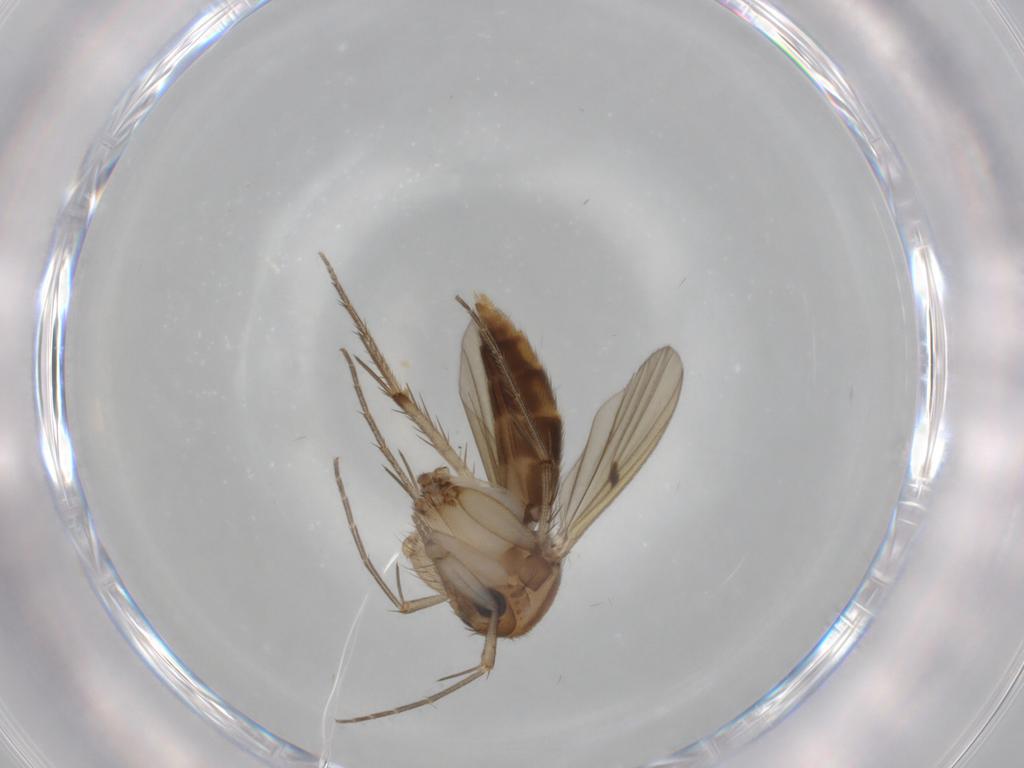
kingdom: Animalia
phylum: Arthropoda
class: Insecta
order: Diptera
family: Mycetophilidae
